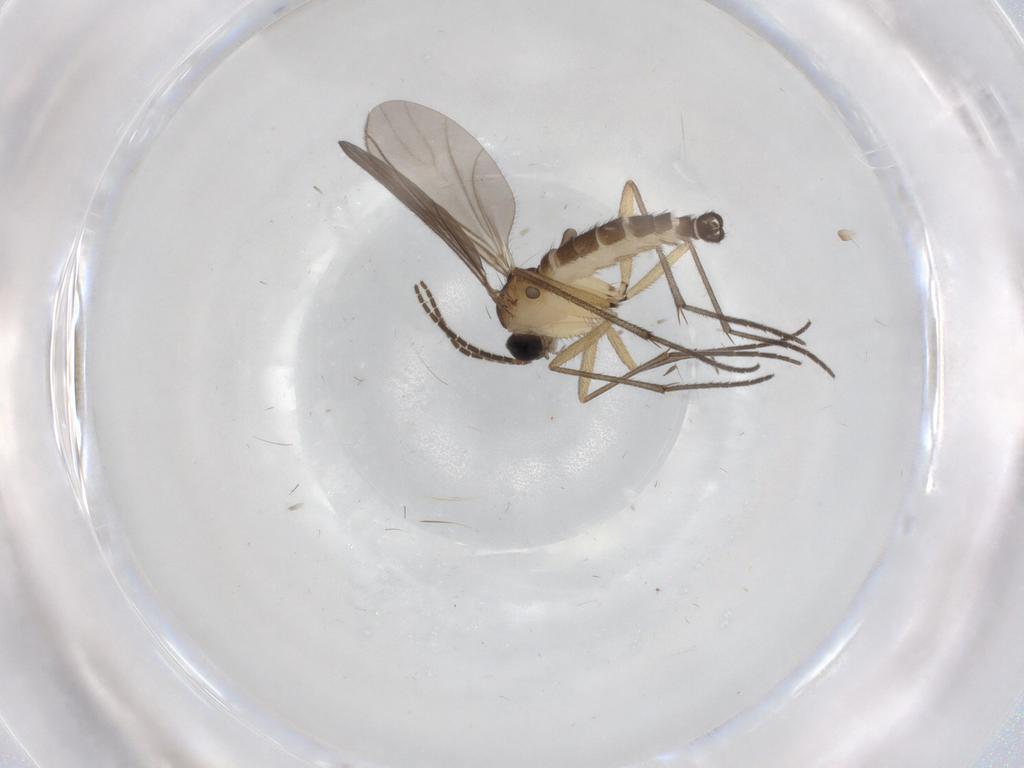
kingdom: Animalia
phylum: Arthropoda
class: Insecta
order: Diptera
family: Sciaridae
